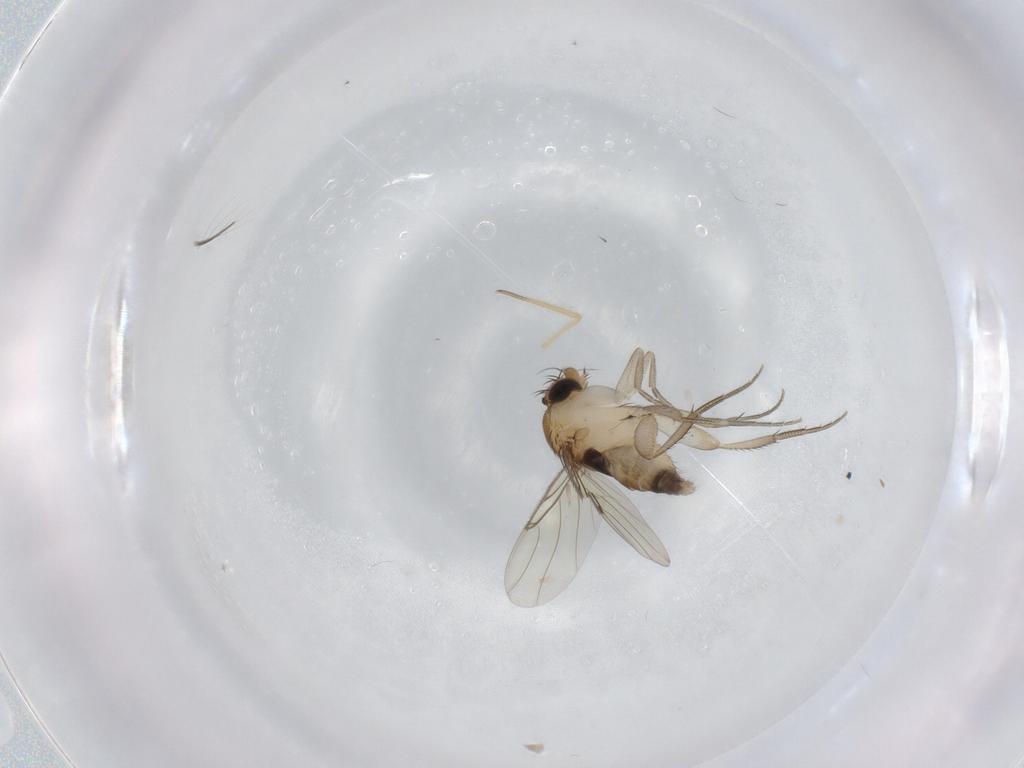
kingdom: Animalia
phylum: Arthropoda
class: Insecta
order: Diptera
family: Phoridae
